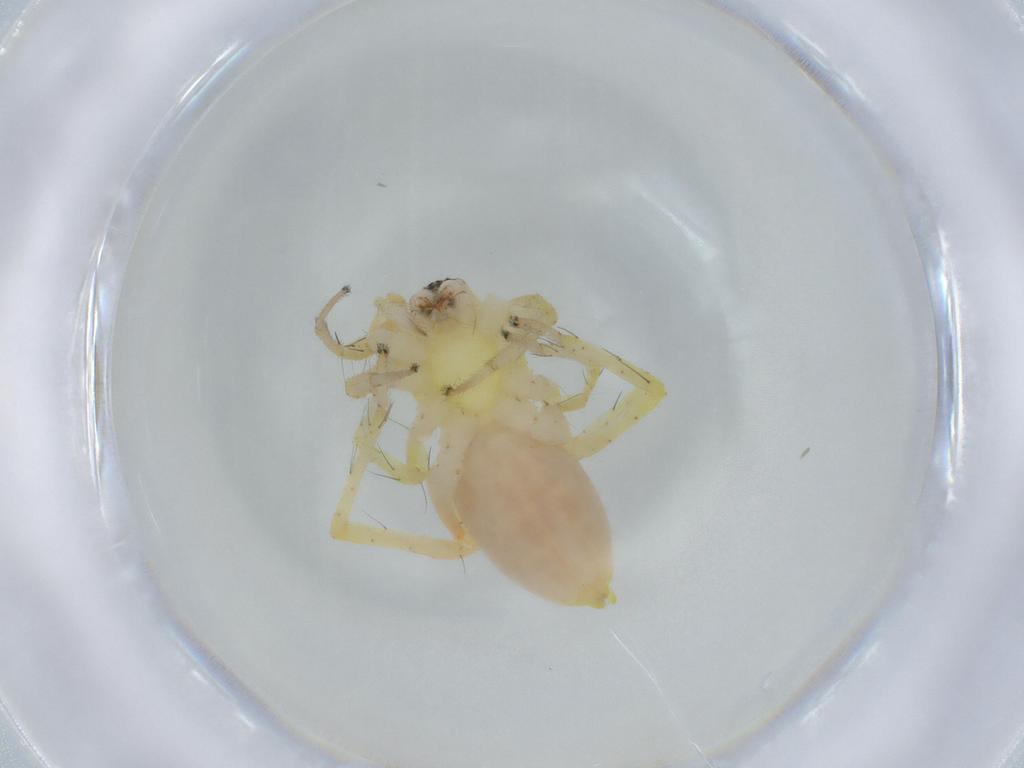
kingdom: Animalia
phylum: Arthropoda
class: Arachnida
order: Araneae
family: Anyphaenidae
